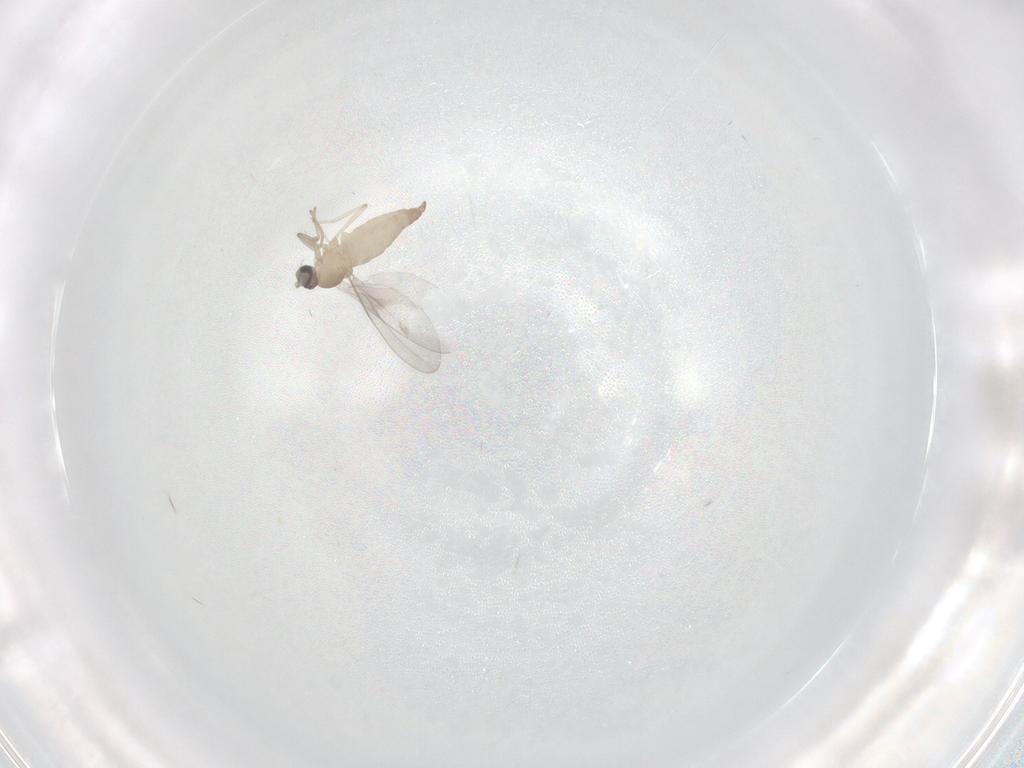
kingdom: Animalia
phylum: Arthropoda
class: Insecta
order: Diptera
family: Cecidomyiidae
